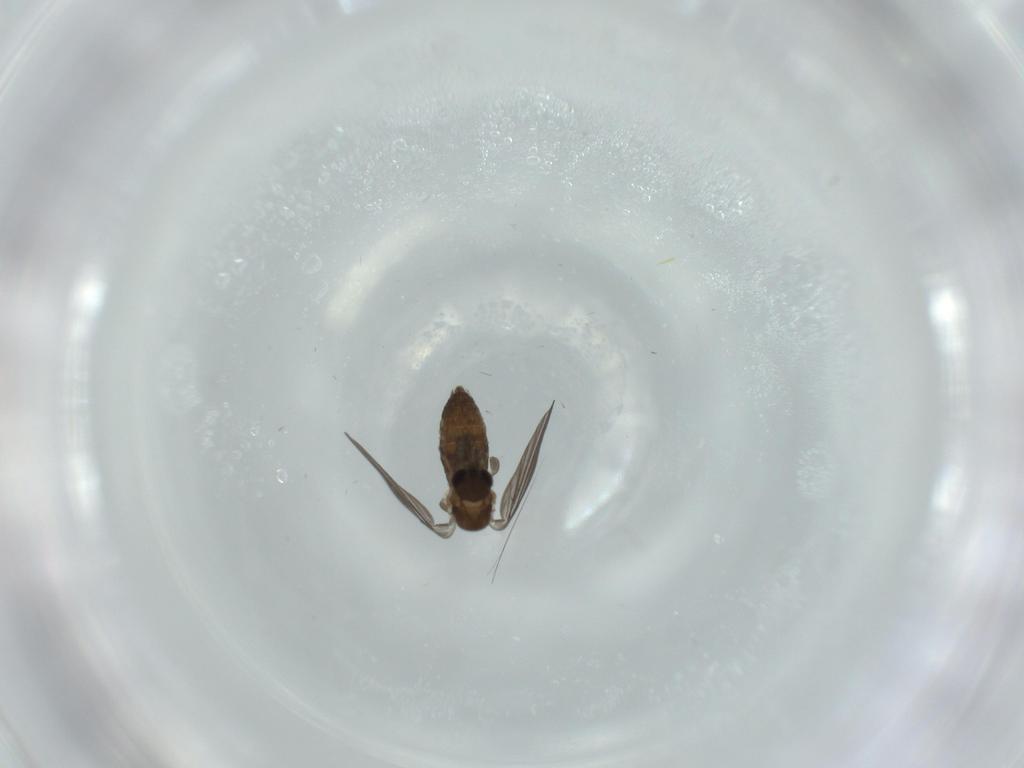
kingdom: Animalia
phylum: Arthropoda
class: Insecta
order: Diptera
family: Psychodidae
